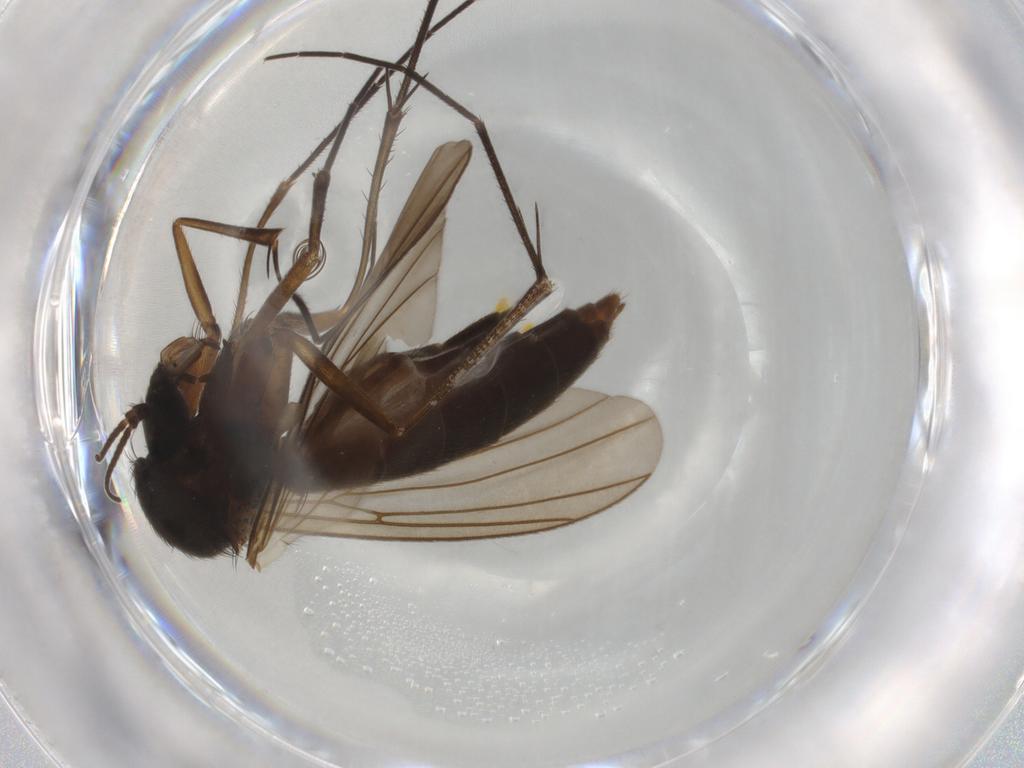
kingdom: Animalia
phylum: Arthropoda
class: Insecta
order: Diptera
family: Muscidae
